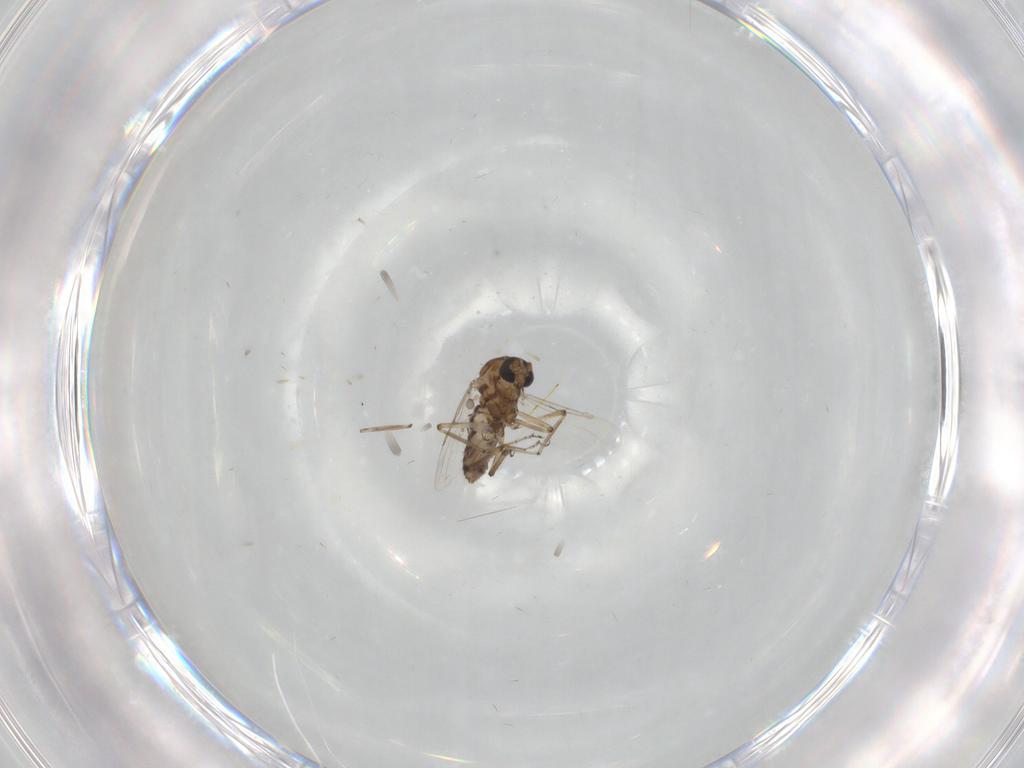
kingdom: Animalia
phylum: Arthropoda
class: Insecta
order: Diptera
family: Ceratopogonidae
